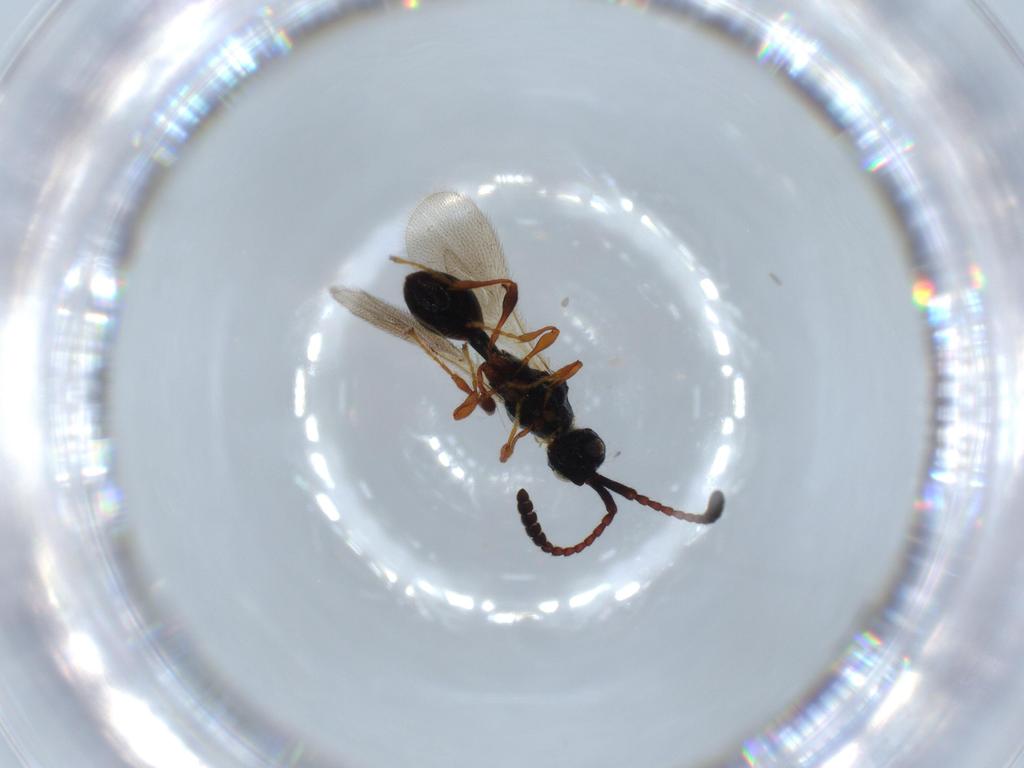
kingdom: Animalia
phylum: Arthropoda
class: Insecta
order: Hymenoptera
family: Diapriidae
